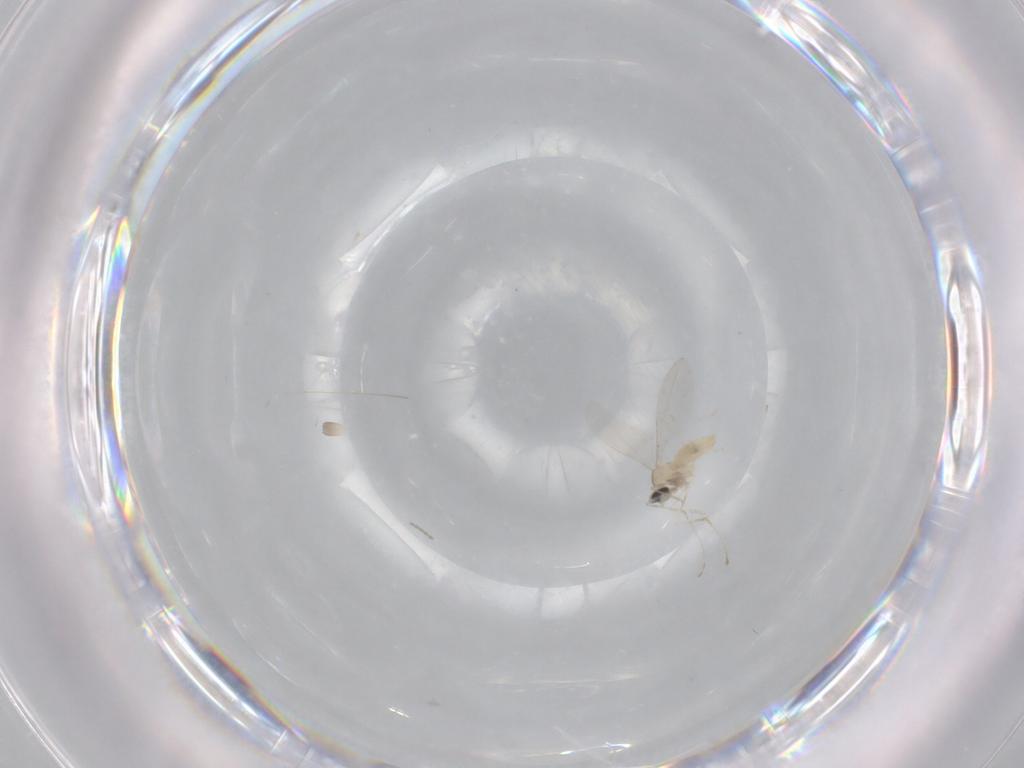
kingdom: Animalia
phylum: Arthropoda
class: Insecta
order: Diptera
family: Cecidomyiidae
